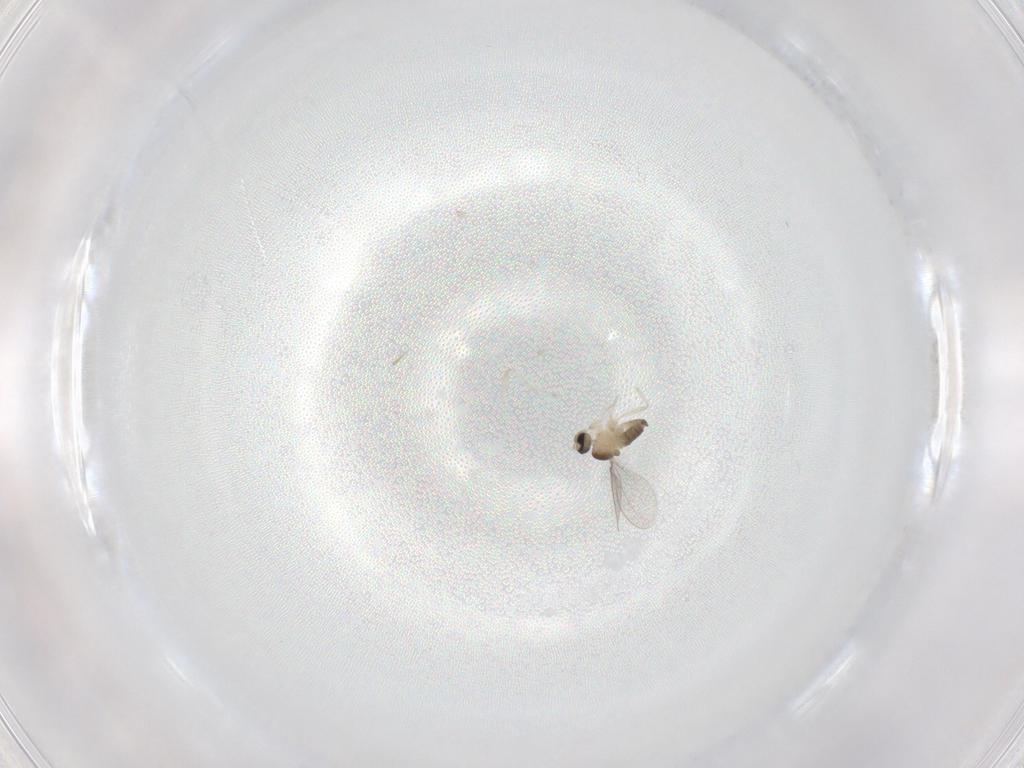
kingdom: Animalia
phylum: Arthropoda
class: Insecta
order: Diptera
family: Cecidomyiidae
